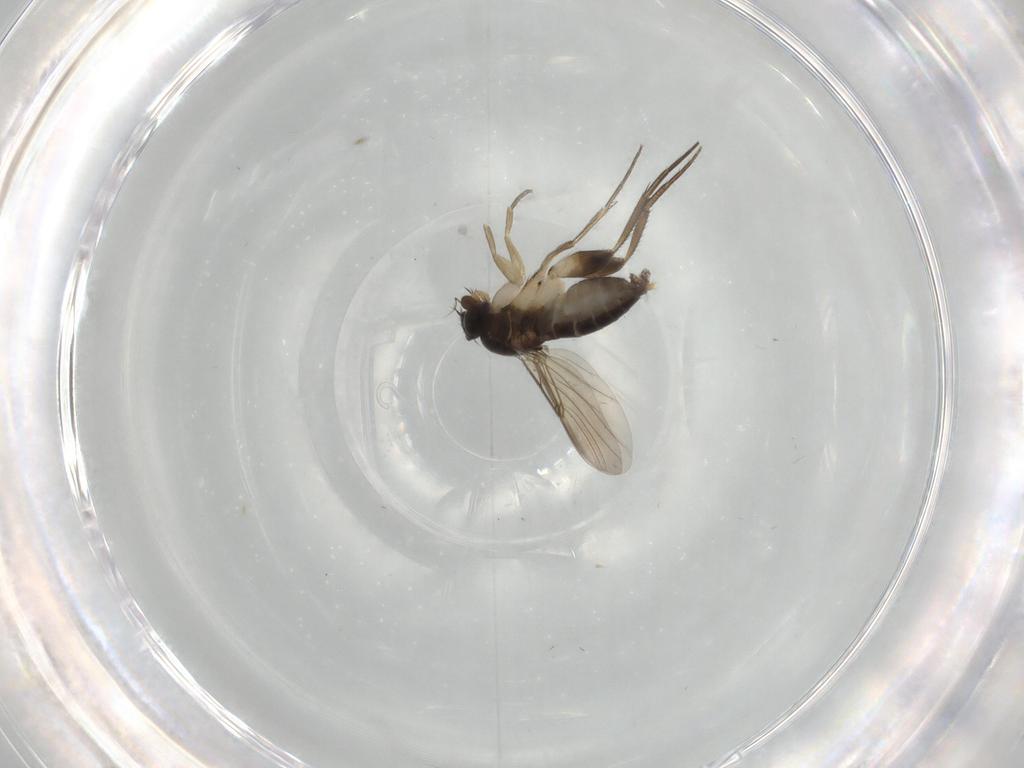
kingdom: Animalia
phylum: Arthropoda
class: Insecta
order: Diptera
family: Phoridae
